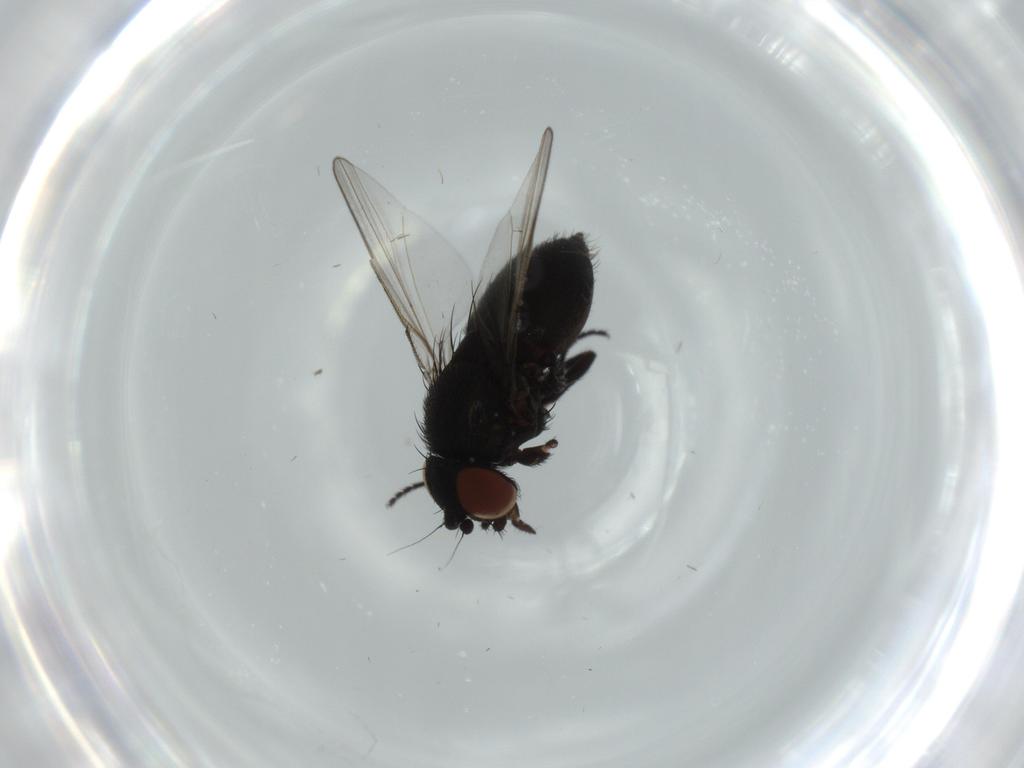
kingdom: Animalia
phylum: Arthropoda
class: Insecta
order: Diptera
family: Milichiidae
